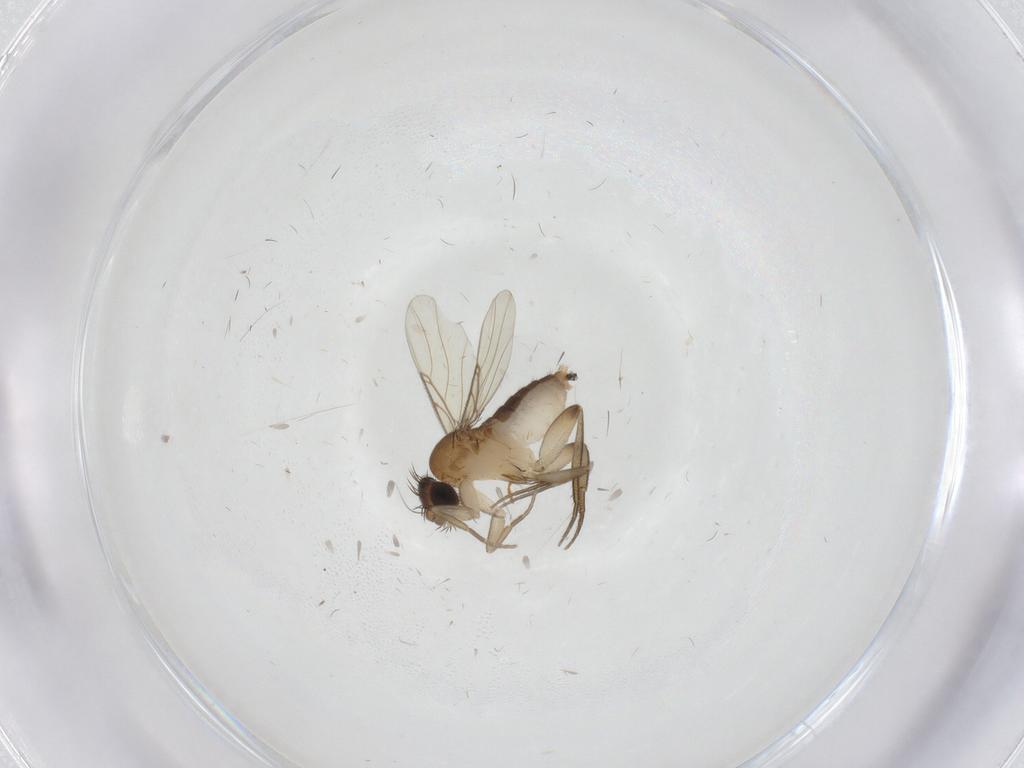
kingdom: Animalia
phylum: Arthropoda
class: Insecta
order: Diptera
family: Phoridae
